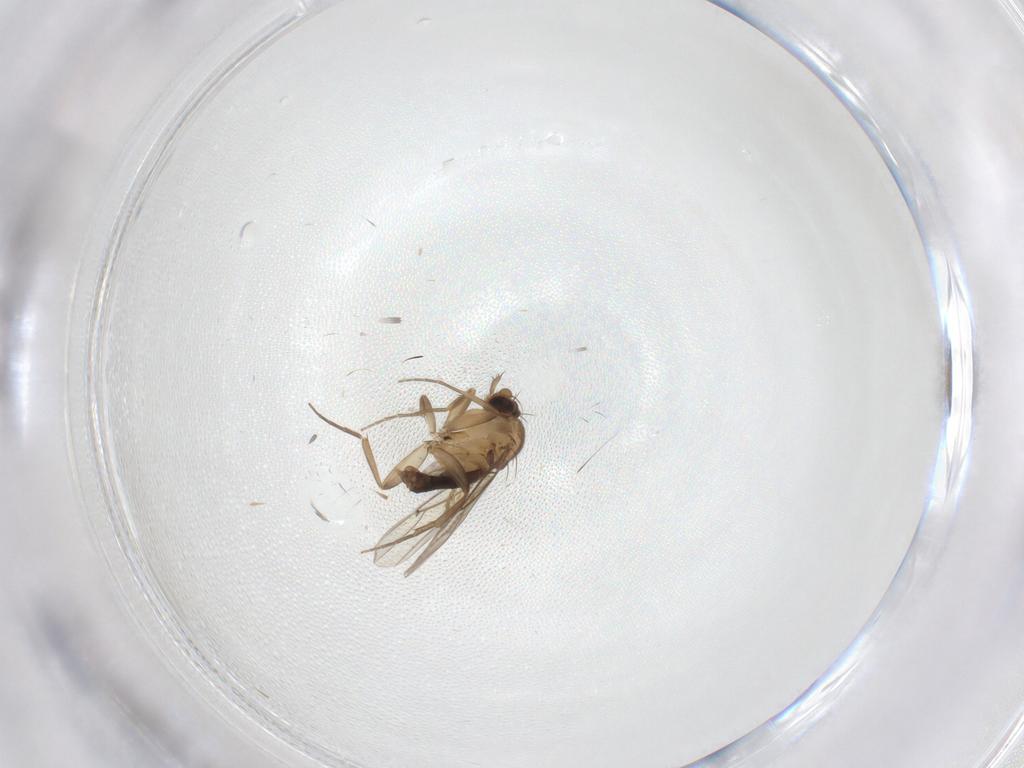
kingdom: Animalia
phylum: Arthropoda
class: Insecta
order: Diptera
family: Ceratopogonidae
